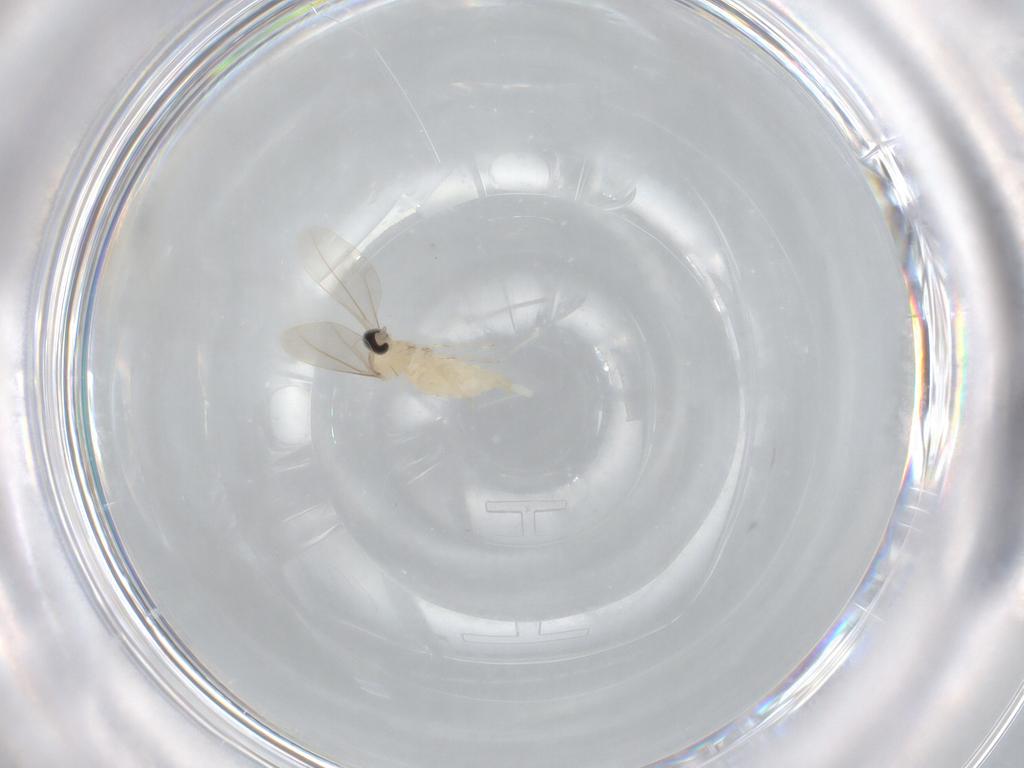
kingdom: Animalia
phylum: Arthropoda
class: Insecta
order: Diptera
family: Cecidomyiidae
